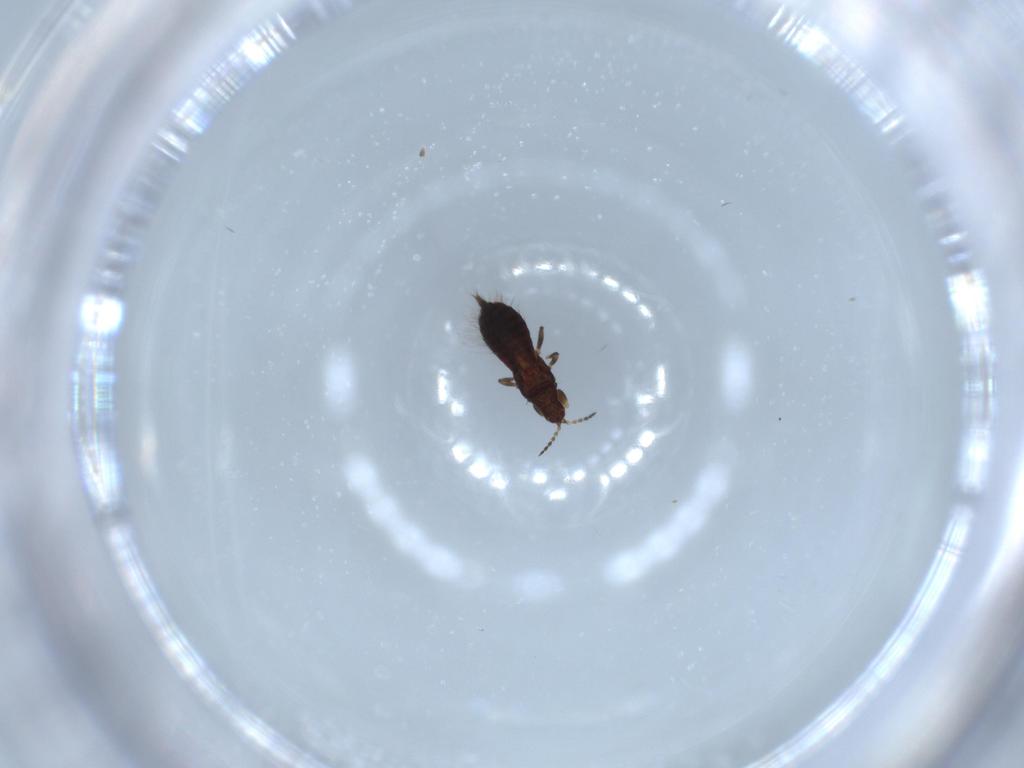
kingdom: Animalia
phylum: Arthropoda
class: Insecta
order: Thysanoptera
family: Phlaeothripidae
